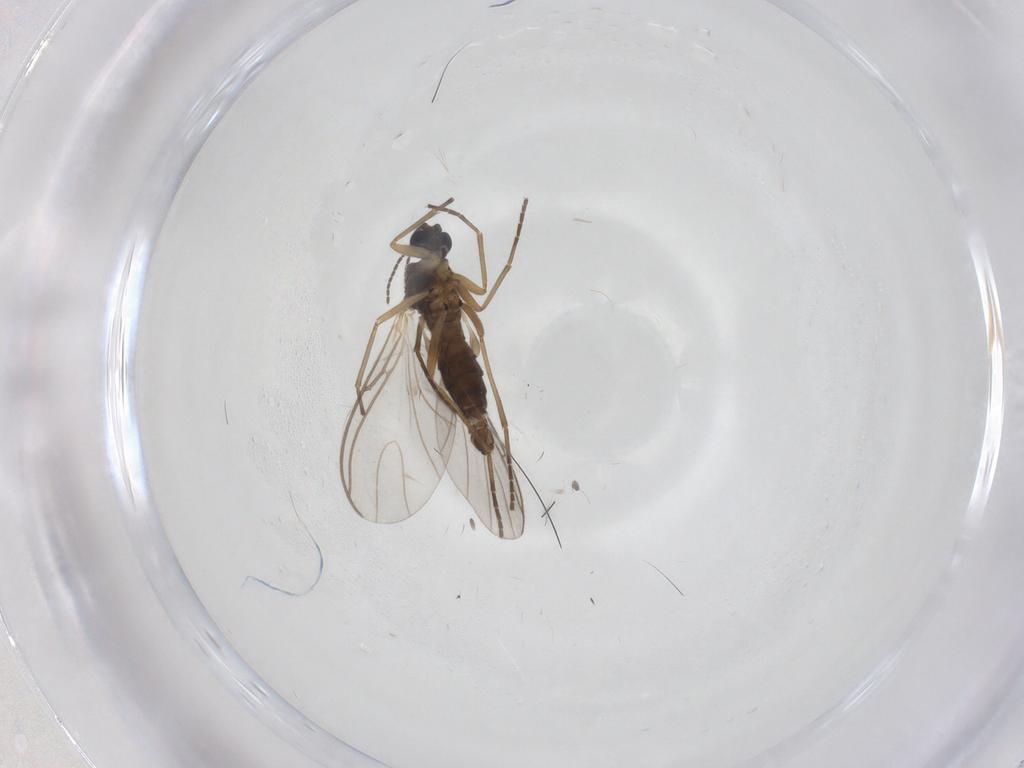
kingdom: Animalia
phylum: Arthropoda
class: Insecta
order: Diptera
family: Sciaridae
